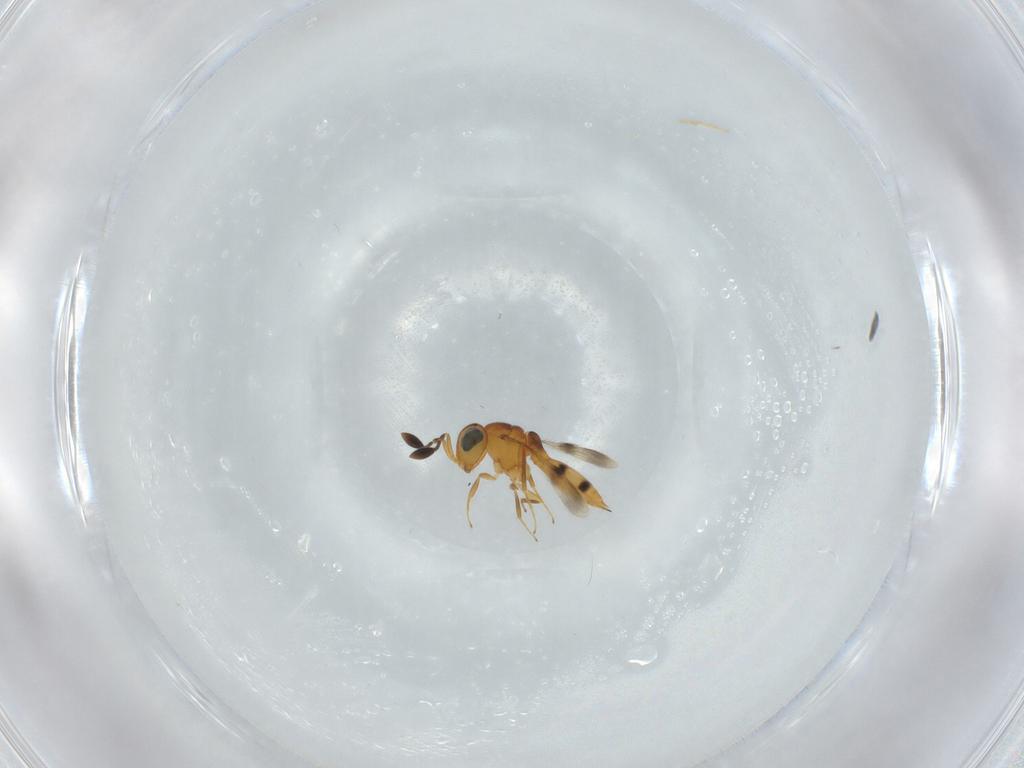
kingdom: Animalia
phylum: Arthropoda
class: Insecta
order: Hymenoptera
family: Scelionidae
